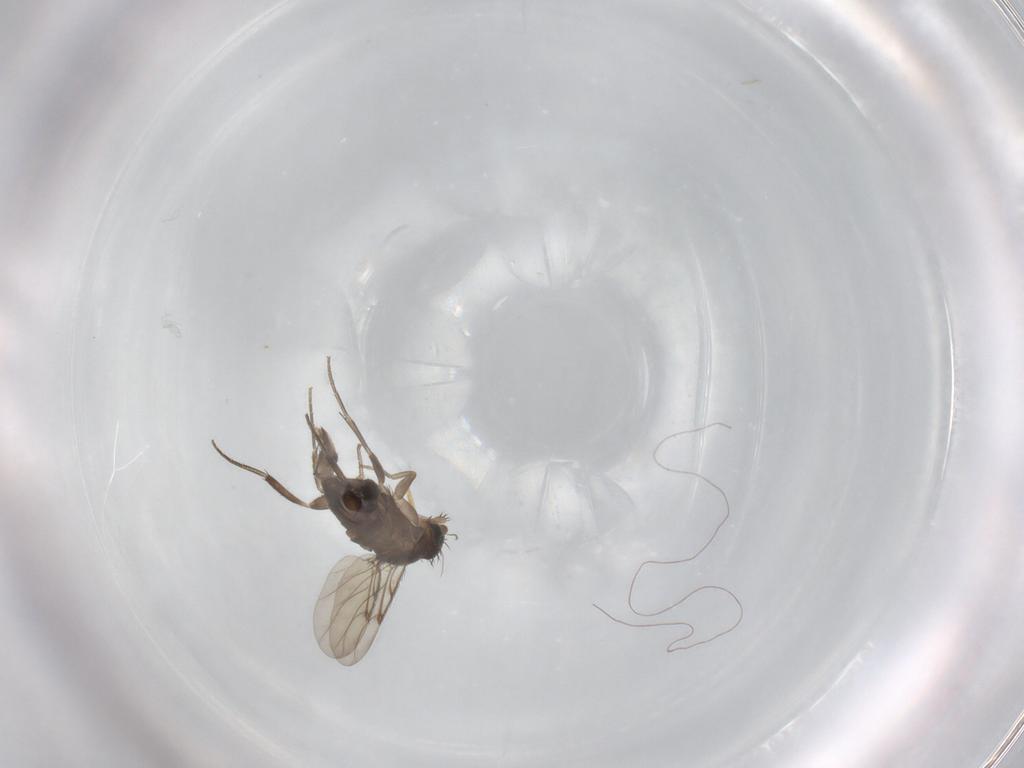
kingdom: Animalia
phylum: Arthropoda
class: Insecta
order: Diptera
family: Phoridae
